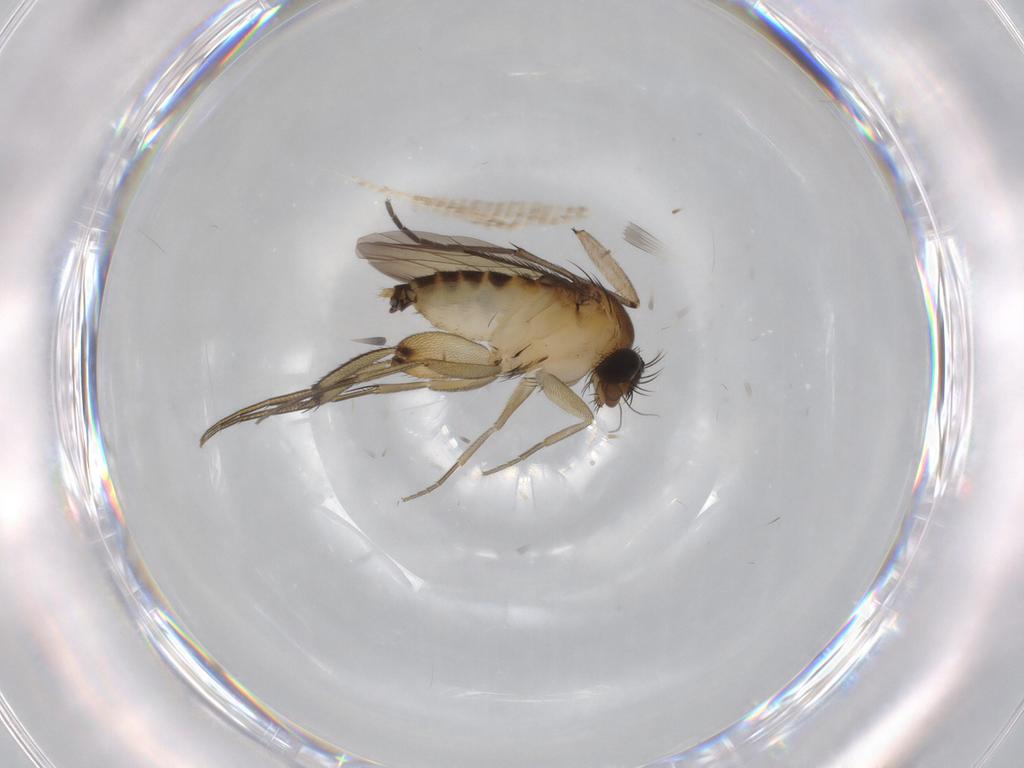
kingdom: Animalia
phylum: Arthropoda
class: Insecta
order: Diptera
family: Phoridae
